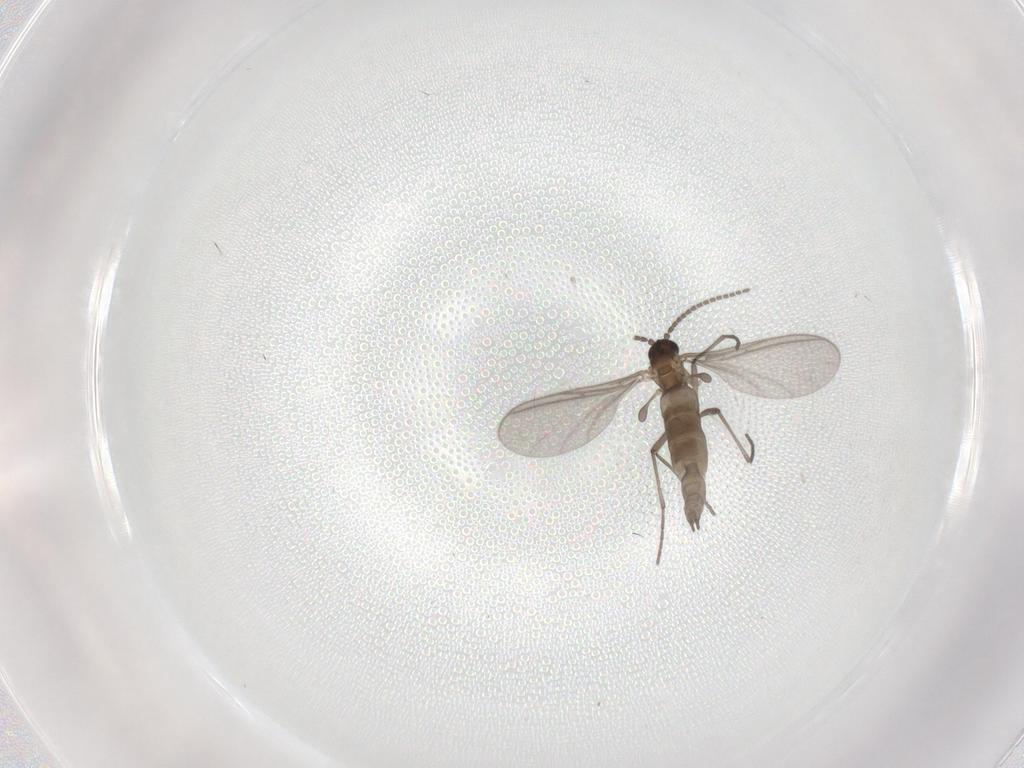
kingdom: Animalia
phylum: Arthropoda
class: Insecta
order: Diptera
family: Sciaridae
